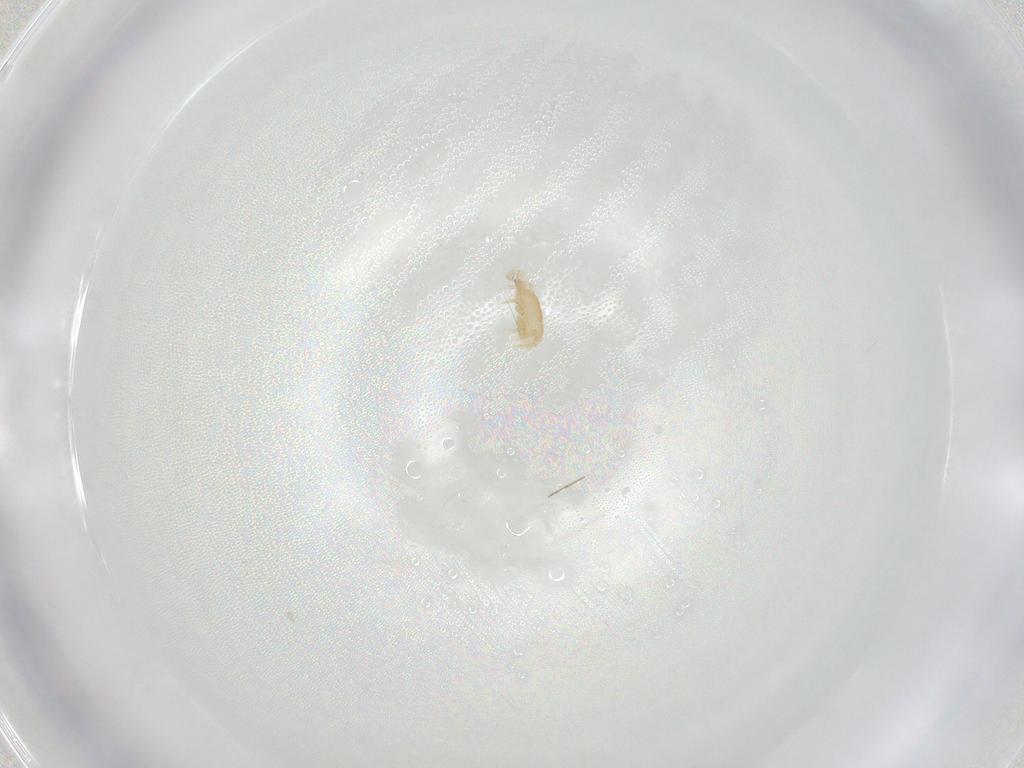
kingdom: Animalia
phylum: Arthropoda
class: Arachnida
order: Mesostigmata
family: Parasitidae
